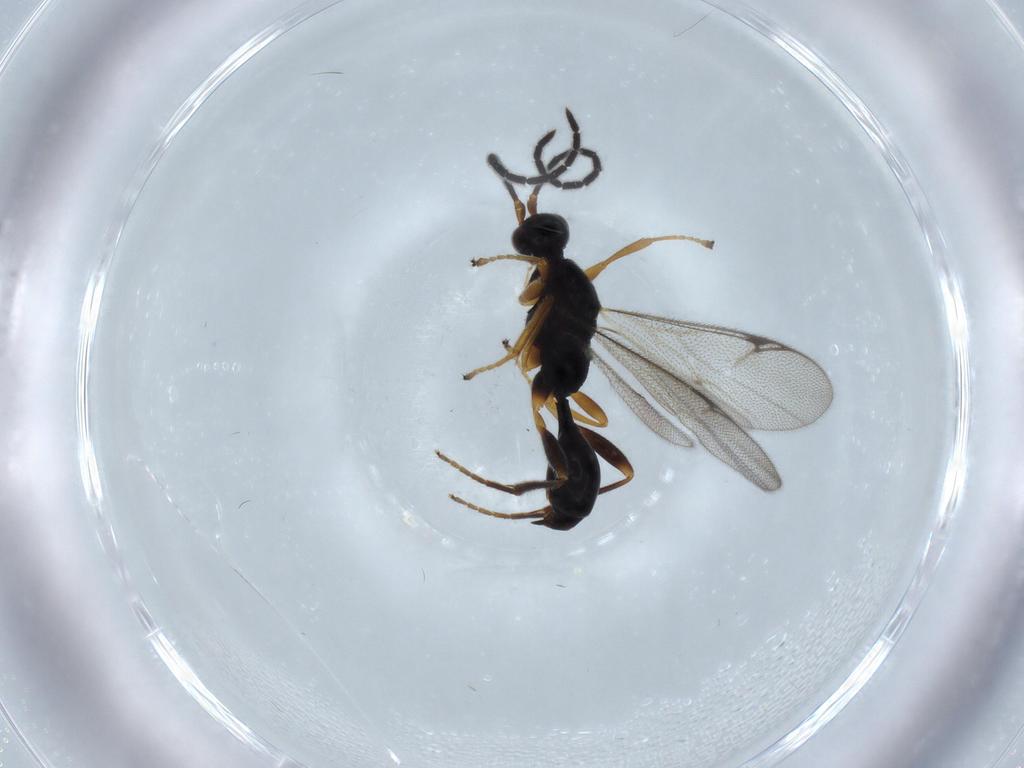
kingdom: Animalia
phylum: Arthropoda
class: Insecta
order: Hymenoptera
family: Proctotrupidae
